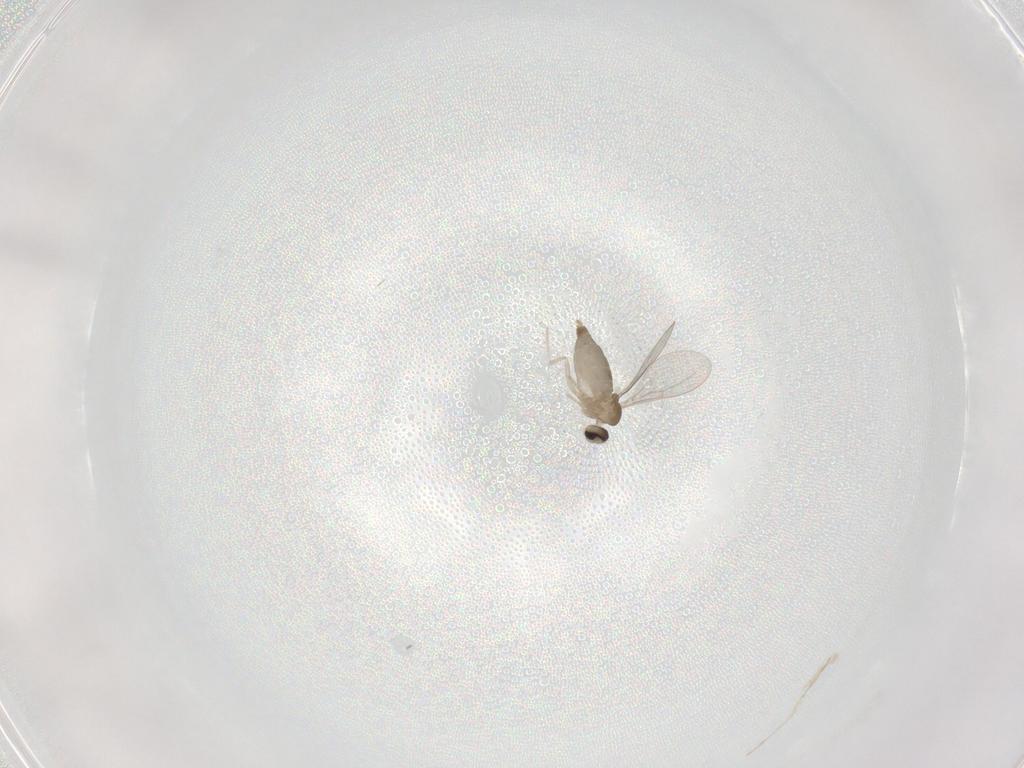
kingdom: Animalia
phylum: Arthropoda
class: Insecta
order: Diptera
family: Cecidomyiidae
